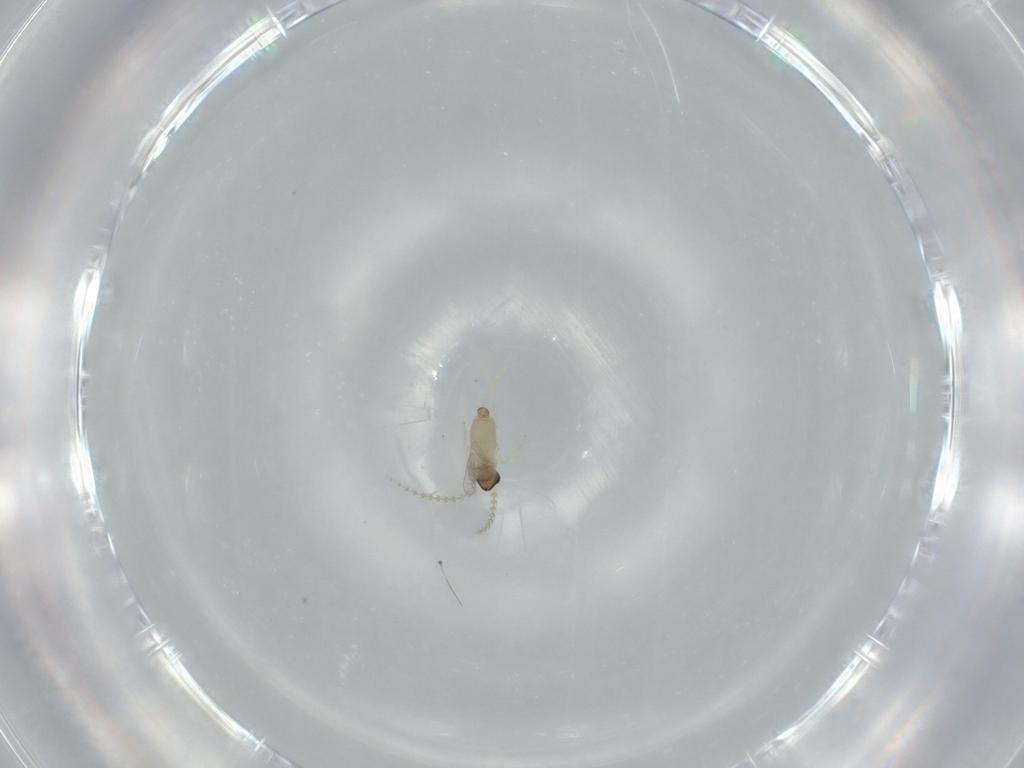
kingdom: Animalia
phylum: Arthropoda
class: Insecta
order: Diptera
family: Cecidomyiidae
